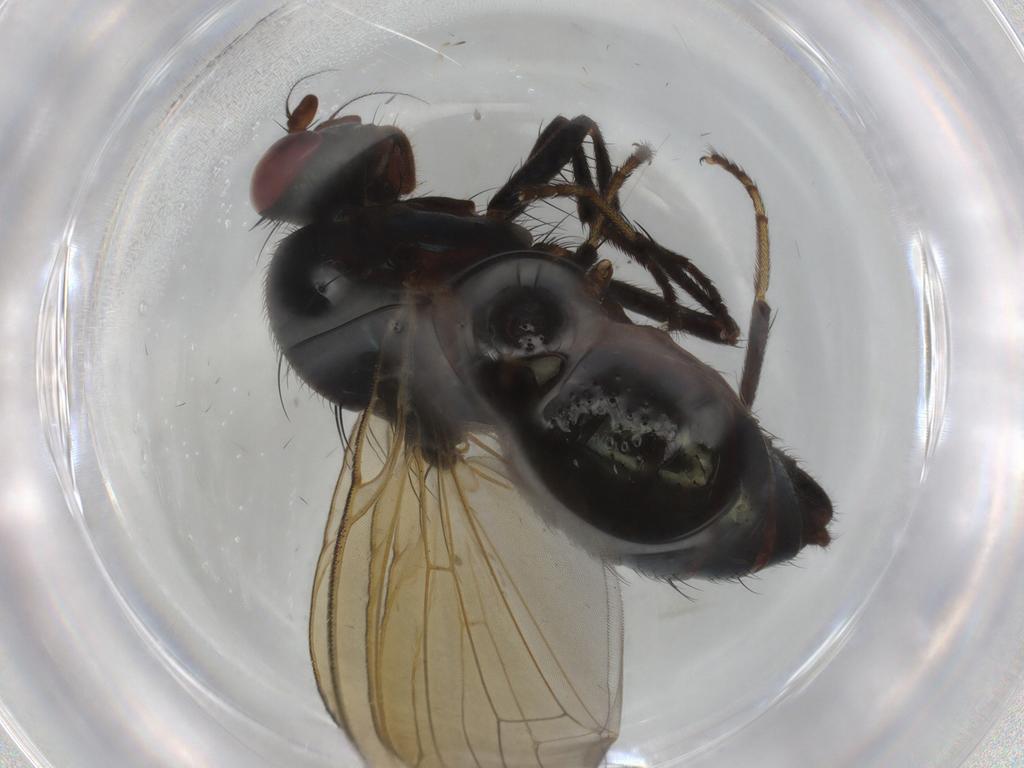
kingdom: Animalia
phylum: Arthropoda
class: Insecta
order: Diptera
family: Lauxaniidae
